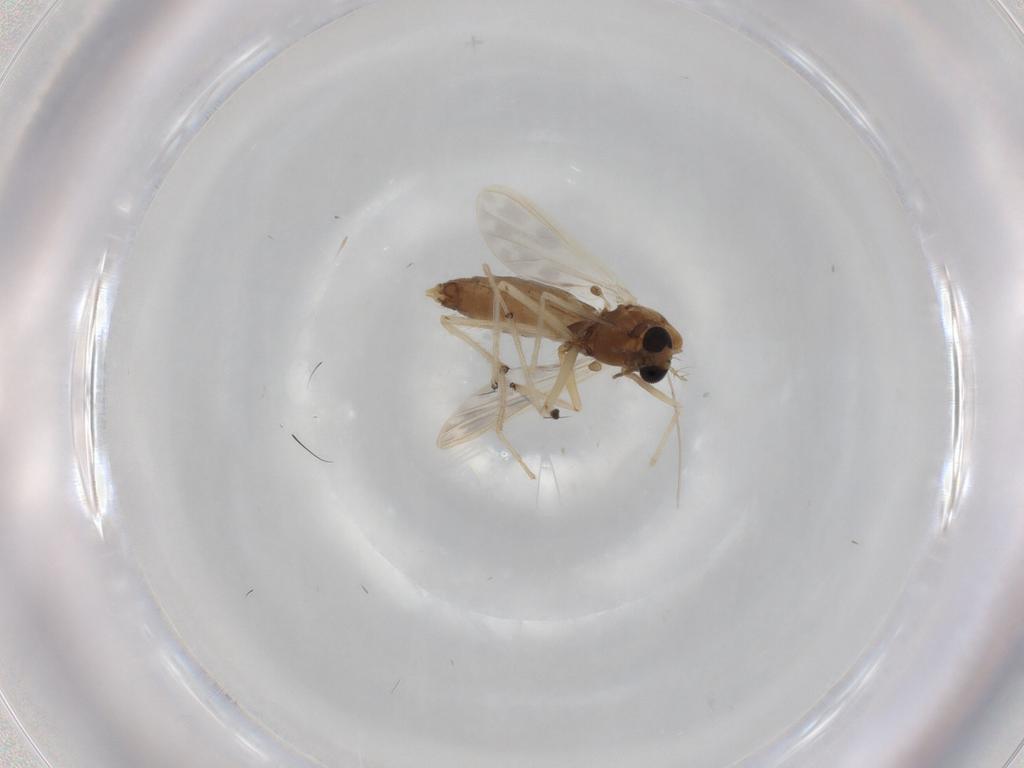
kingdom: Animalia
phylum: Arthropoda
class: Insecta
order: Diptera
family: Chironomidae
